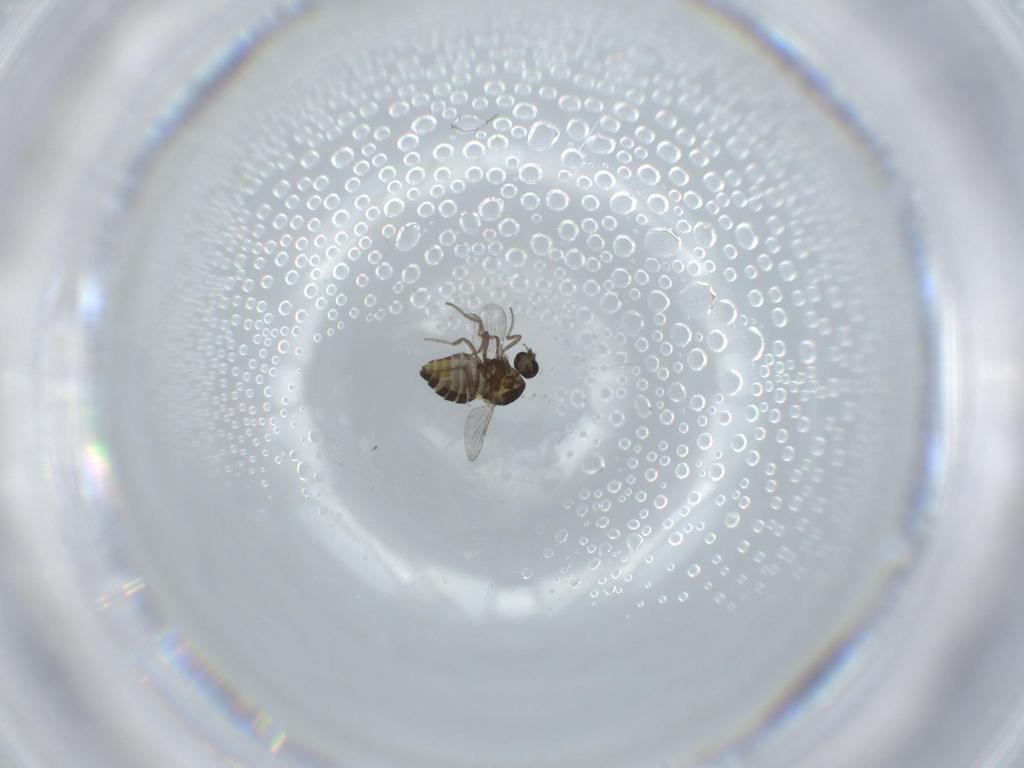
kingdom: Animalia
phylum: Arthropoda
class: Insecta
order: Diptera
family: Ceratopogonidae
